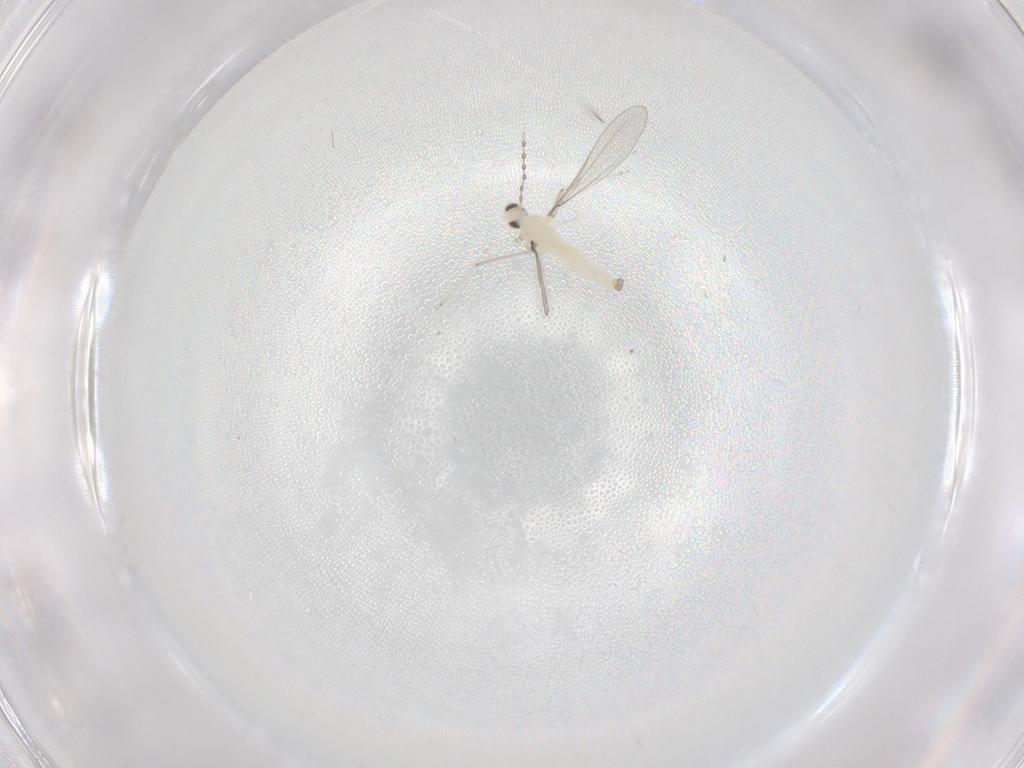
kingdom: Animalia
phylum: Arthropoda
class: Insecta
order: Diptera
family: Cecidomyiidae
